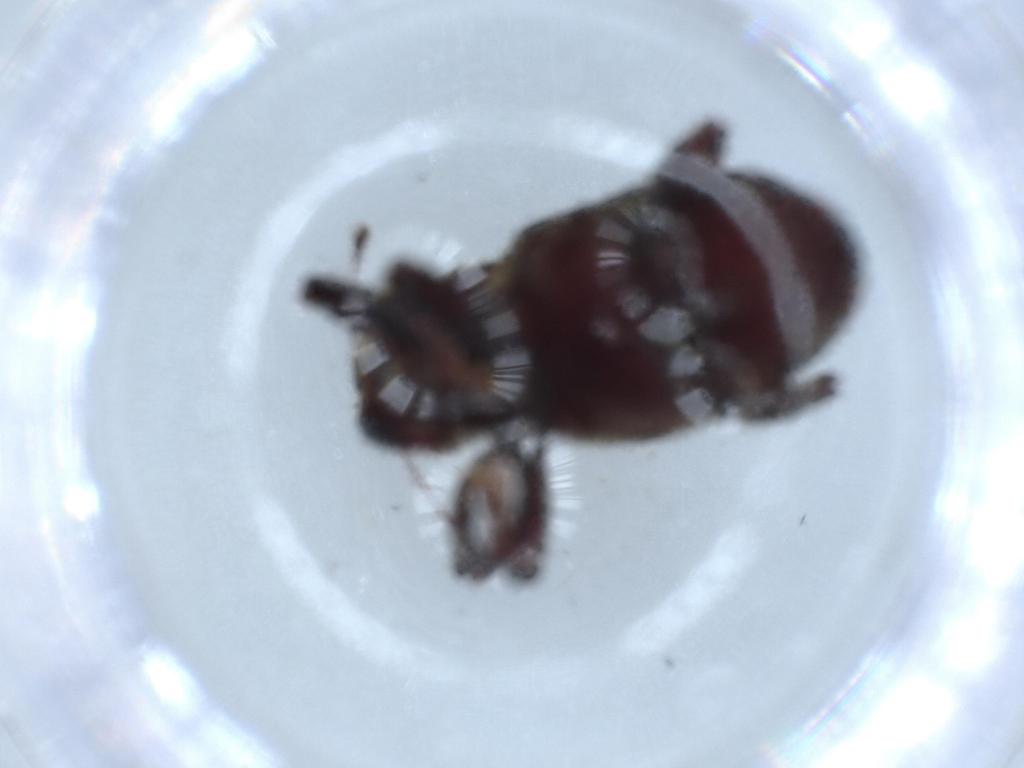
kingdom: Animalia
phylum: Arthropoda
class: Insecta
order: Coleoptera
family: Curculionidae
